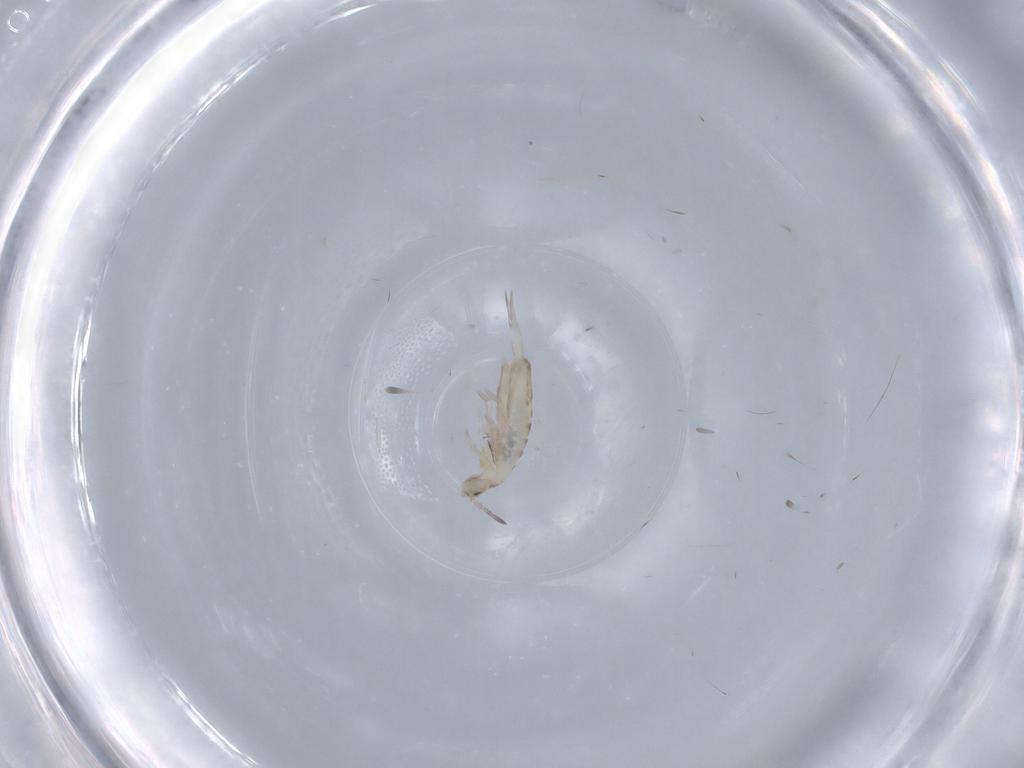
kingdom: Animalia
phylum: Arthropoda
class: Collembola
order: Entomobryomorpha
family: Entomobryidae
